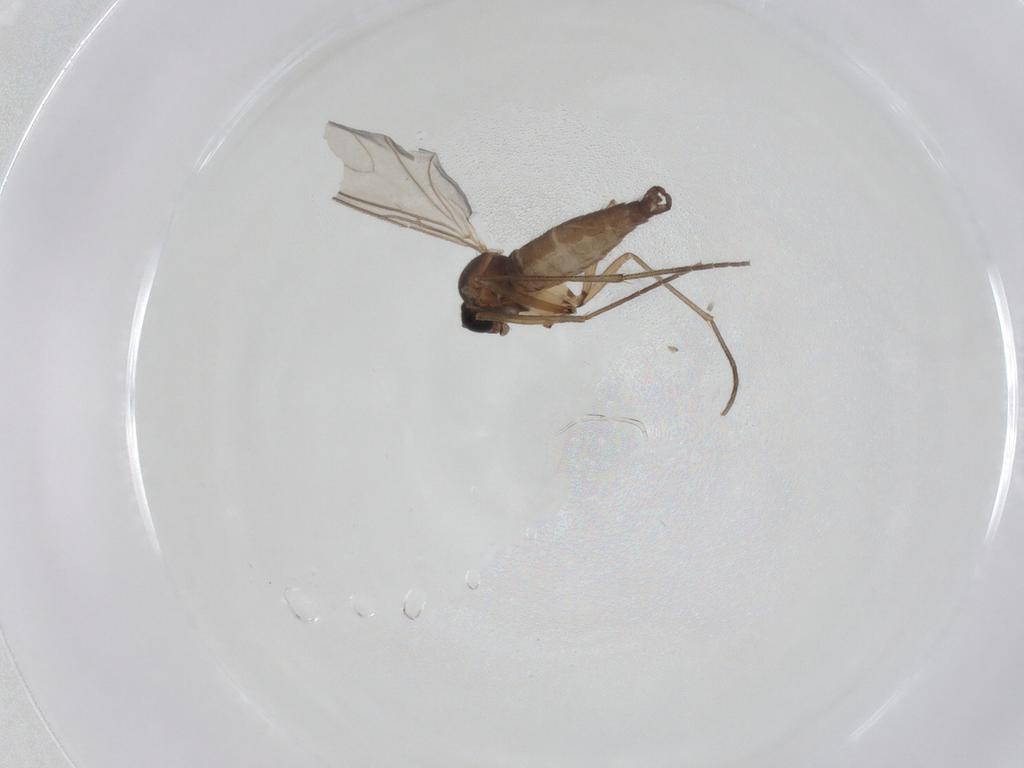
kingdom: Animalia
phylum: Arthropoda
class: Insecta
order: Diptera
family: Sciaridae
